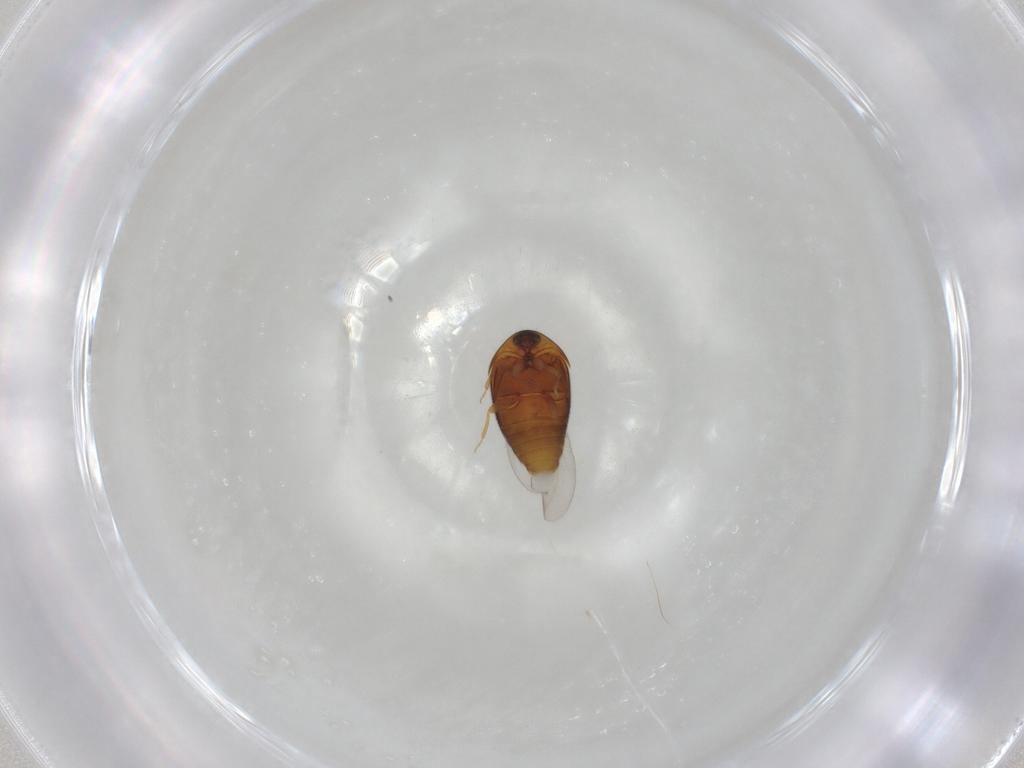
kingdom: Animalia
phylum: Arthropoda
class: Insecta
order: Coleoptera
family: Corylophidae
